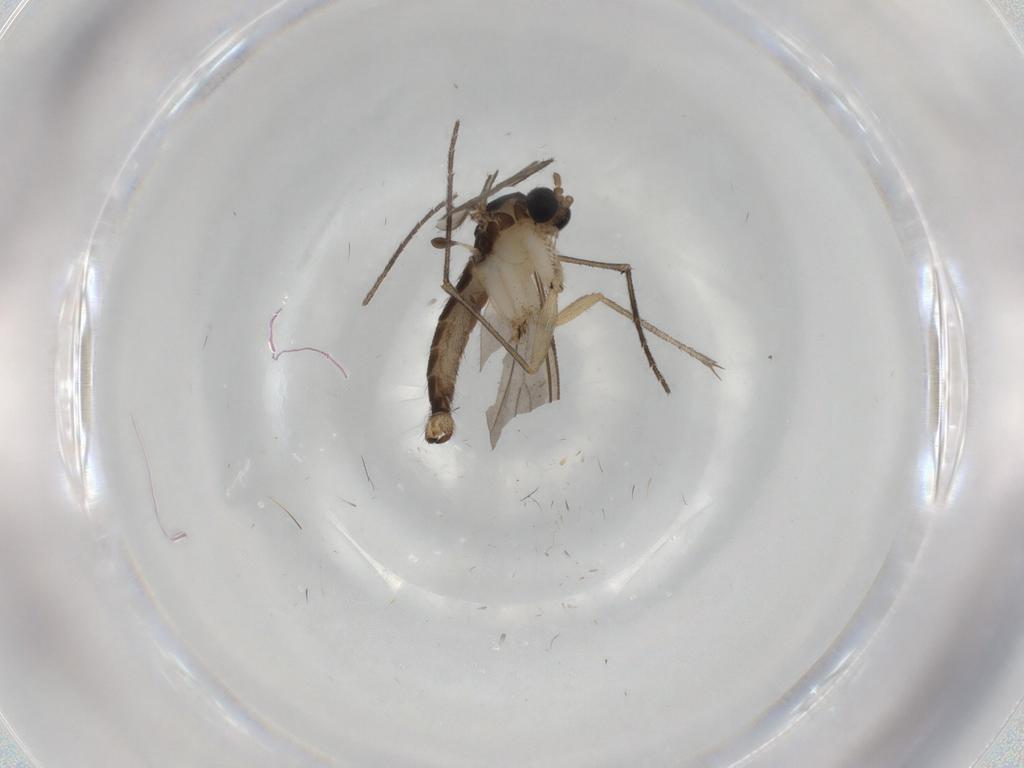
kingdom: Animalia
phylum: Arthropoda
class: Insecta
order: Diptera
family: Sciaridae
